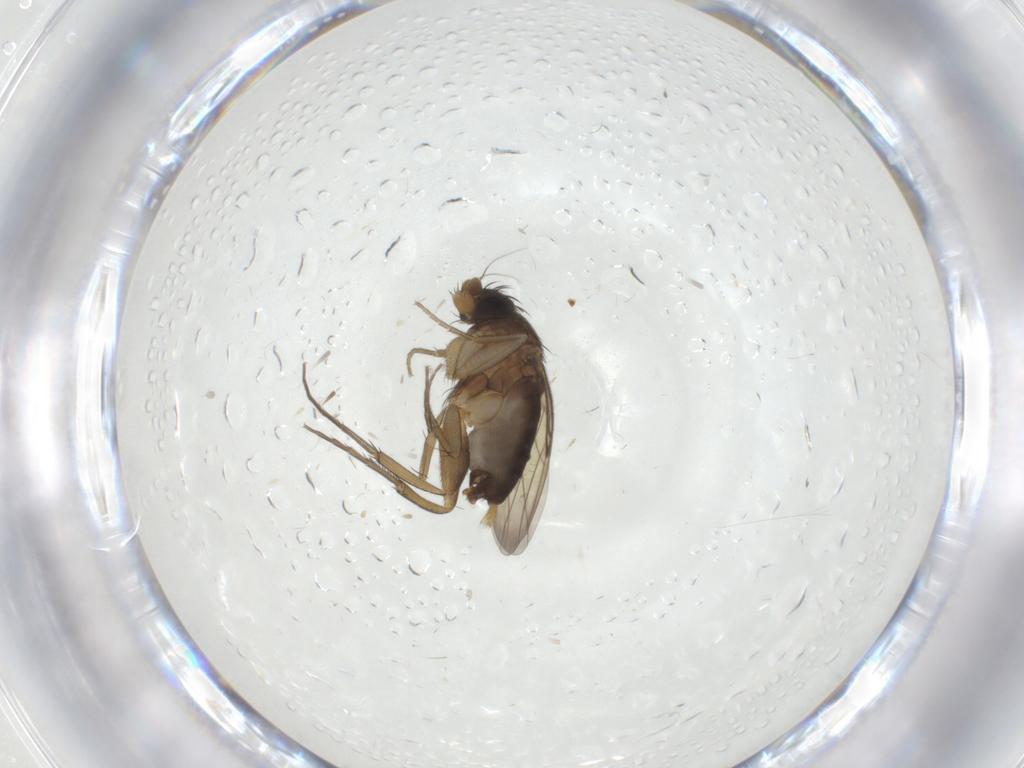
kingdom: Animalia
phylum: Arthropoda
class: Insecta
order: Diptera
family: Phoridae
